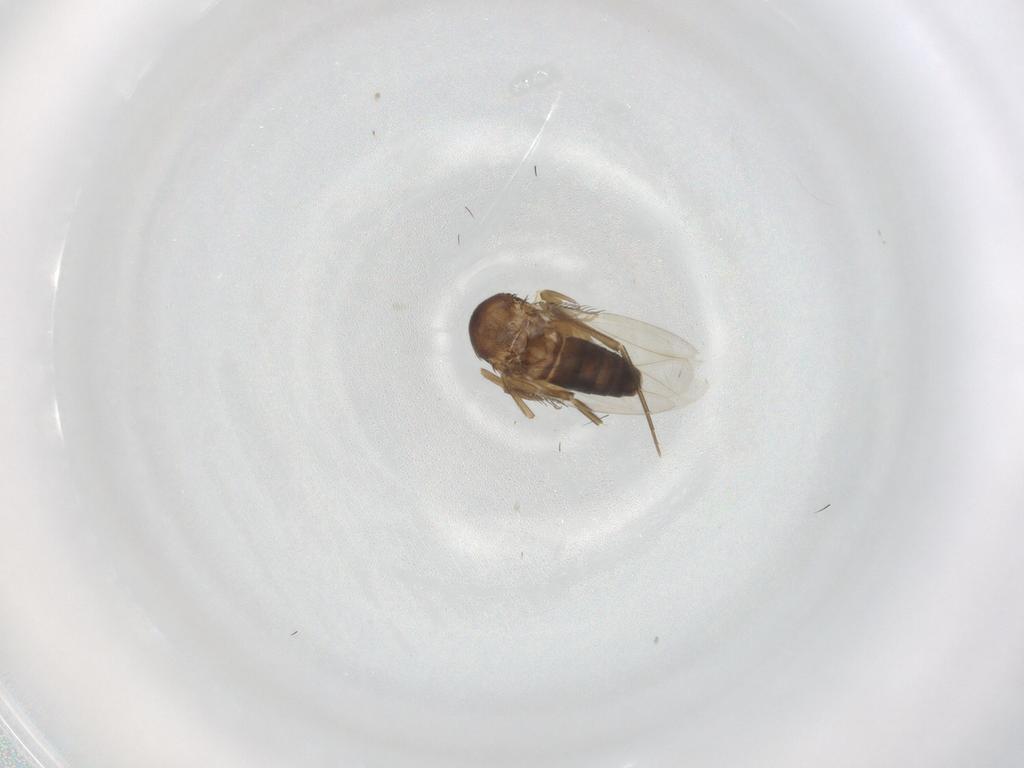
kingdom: Animalia
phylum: Arthropoda
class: Insecta
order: Diptera
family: Phoridae
